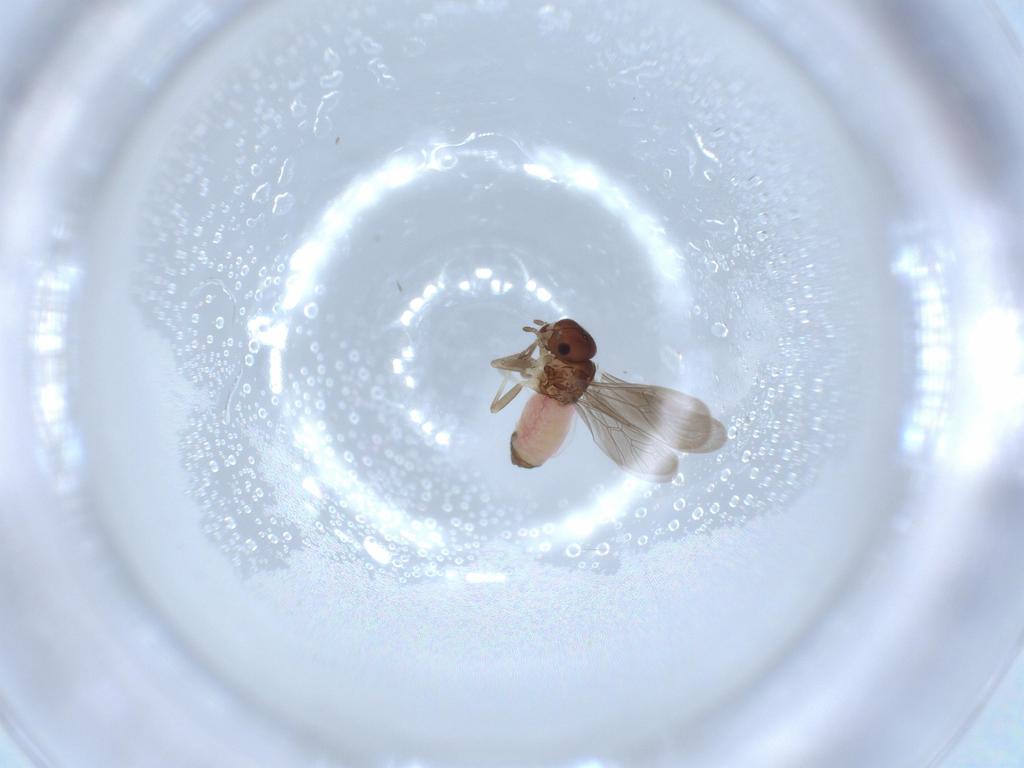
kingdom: Animalia
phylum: Arthropoda
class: Insecta
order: Psocodea
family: Asiopsocidae
